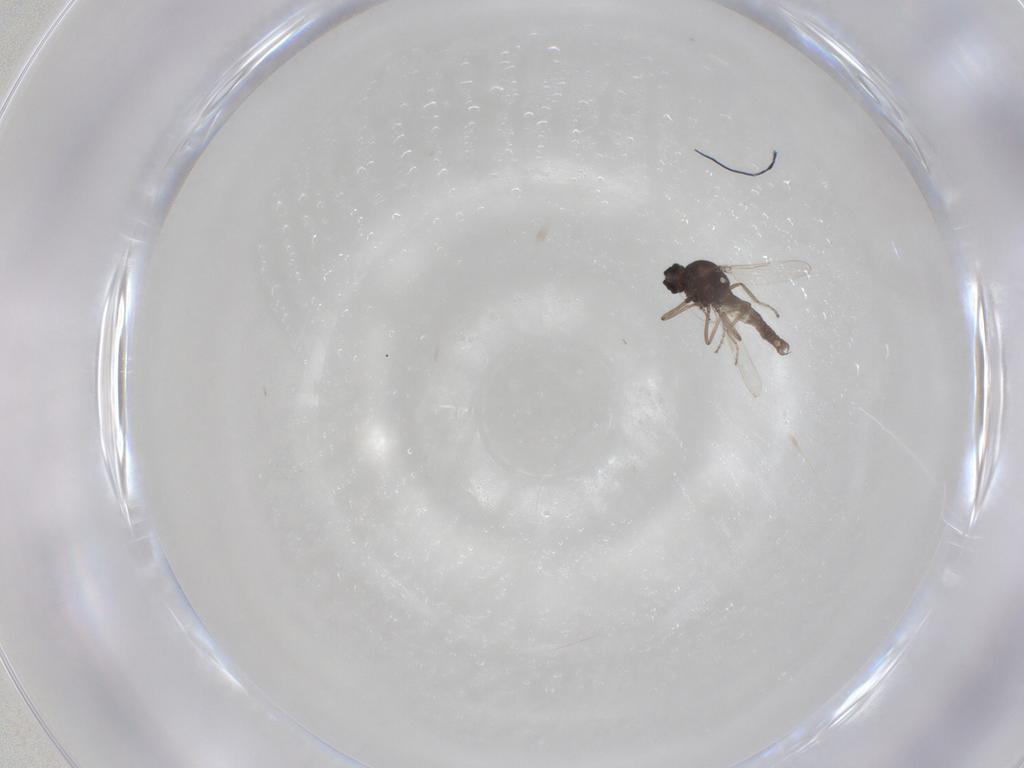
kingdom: Animalia
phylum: Arthropoda
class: Insecta
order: Diptera
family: Ceratopogonidae
